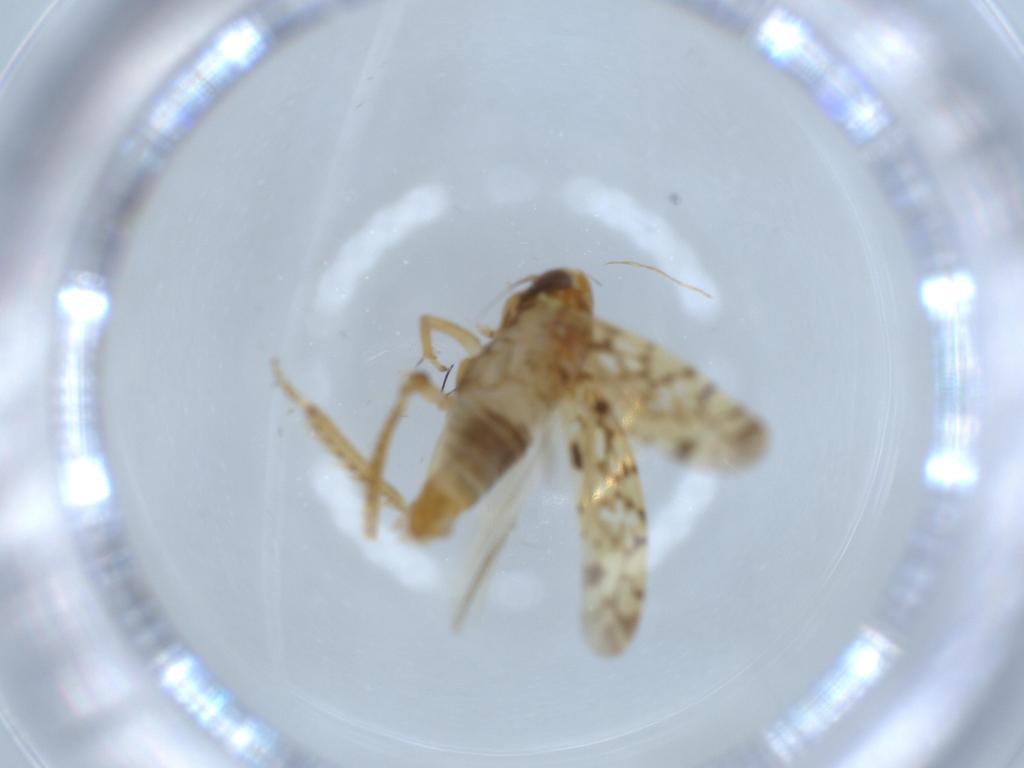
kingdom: Animalia
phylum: Arthropoda
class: Insecta
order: Hemiptera
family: Cicadellidae
